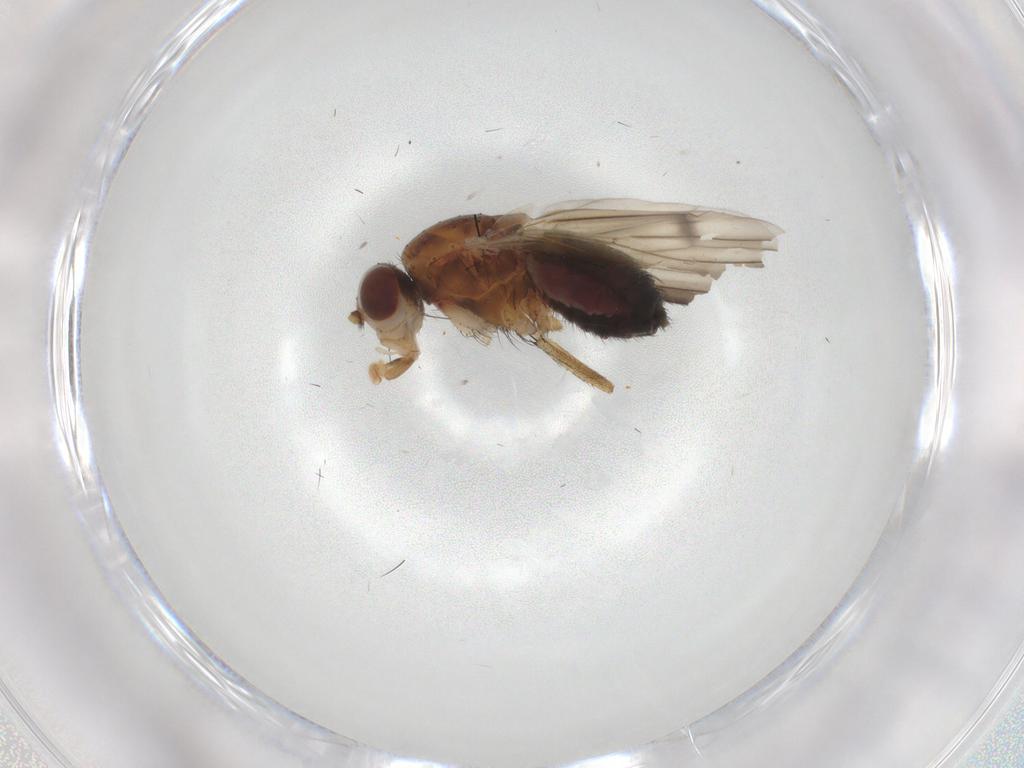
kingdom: Animalia
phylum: Arthropoda
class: Insecta
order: Diptera
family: Heleomyzidae
